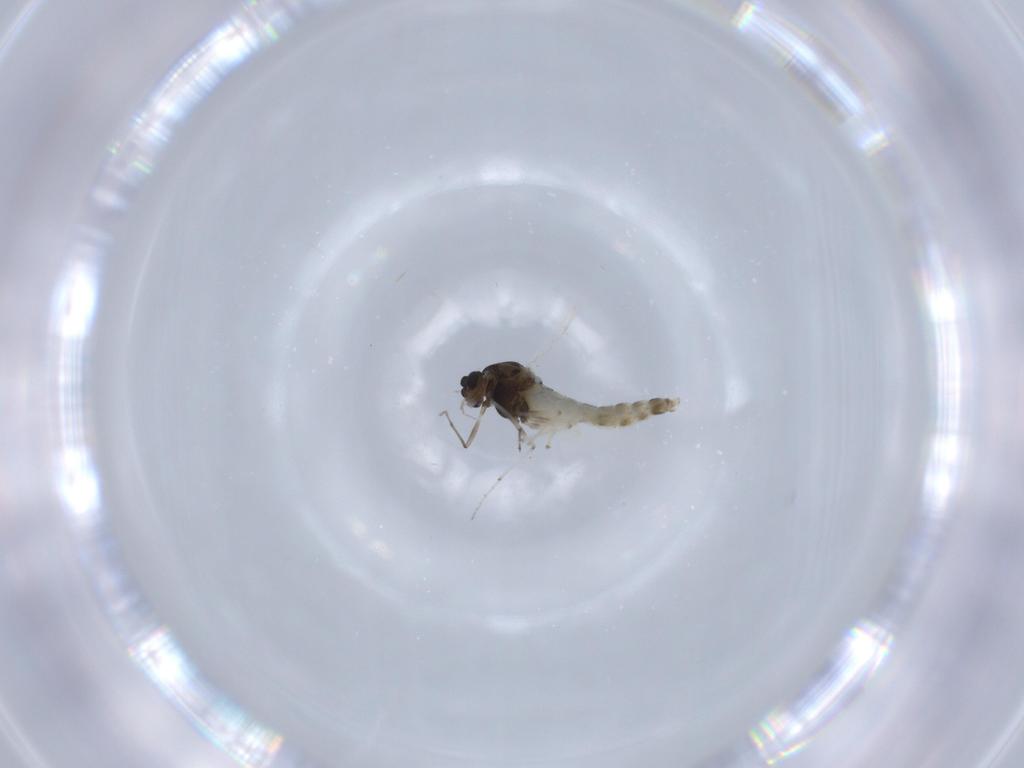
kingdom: Animalia
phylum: Arthropoda
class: Insecta
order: Diptera
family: Chironomidae
